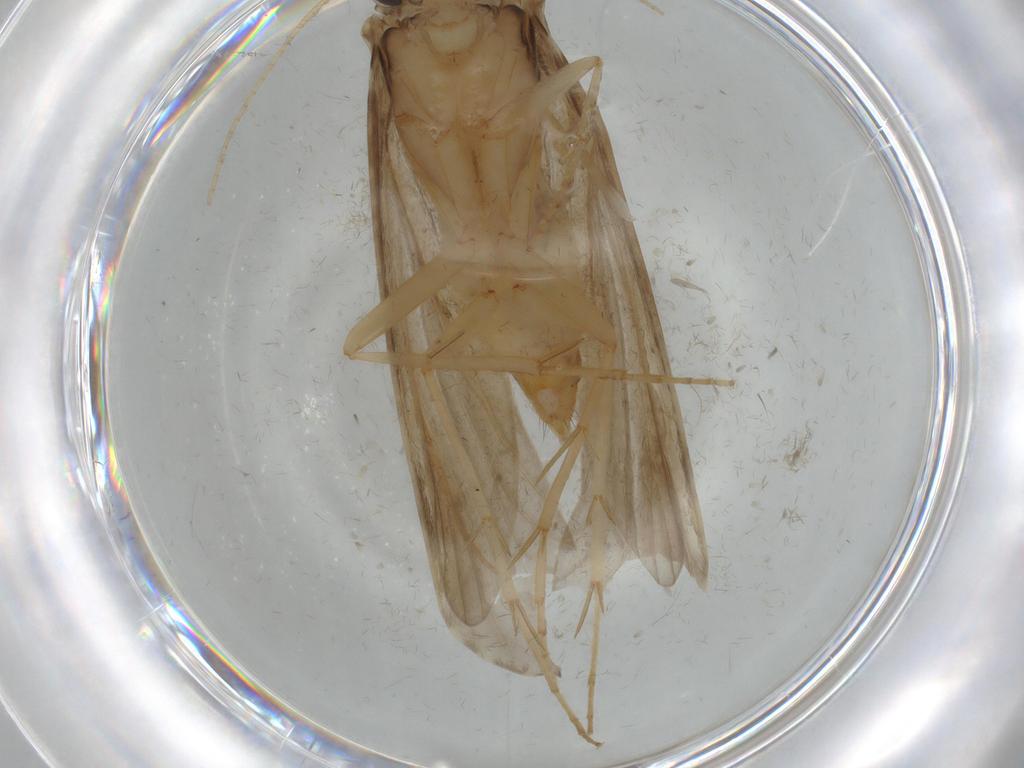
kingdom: Animalia
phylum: Arthropoda
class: Insecta
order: Trichoptera
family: Ecnomidae
